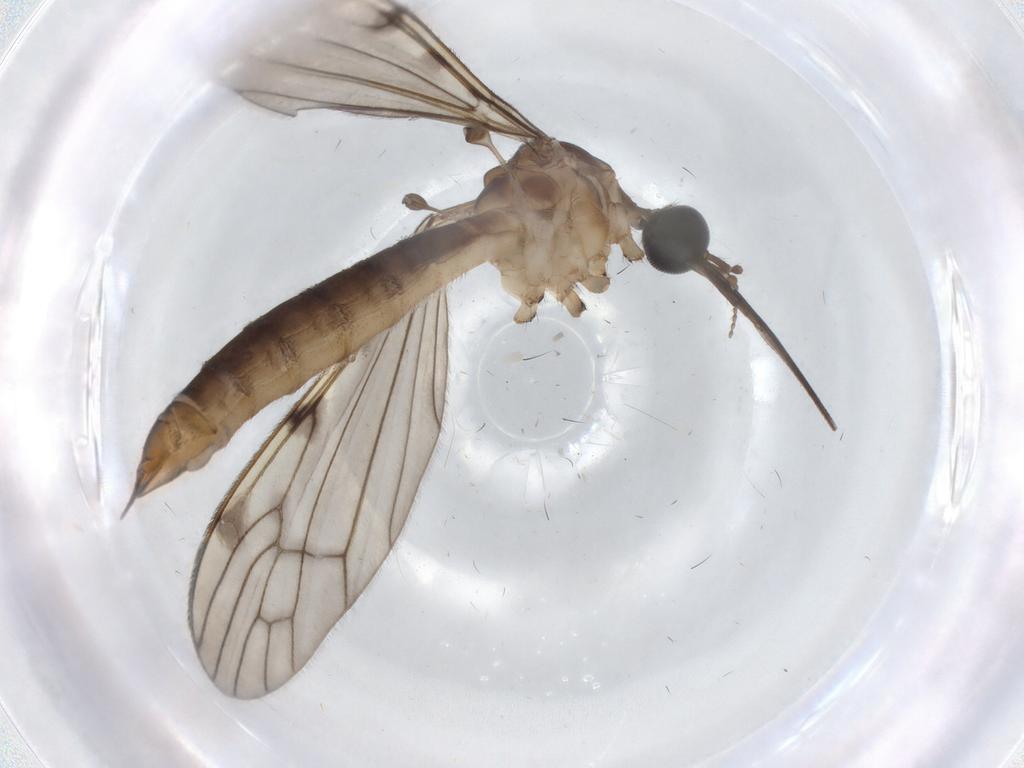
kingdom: Animalia
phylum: Arthropoda
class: Insecta
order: Diptera
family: Sphaeroceridae
